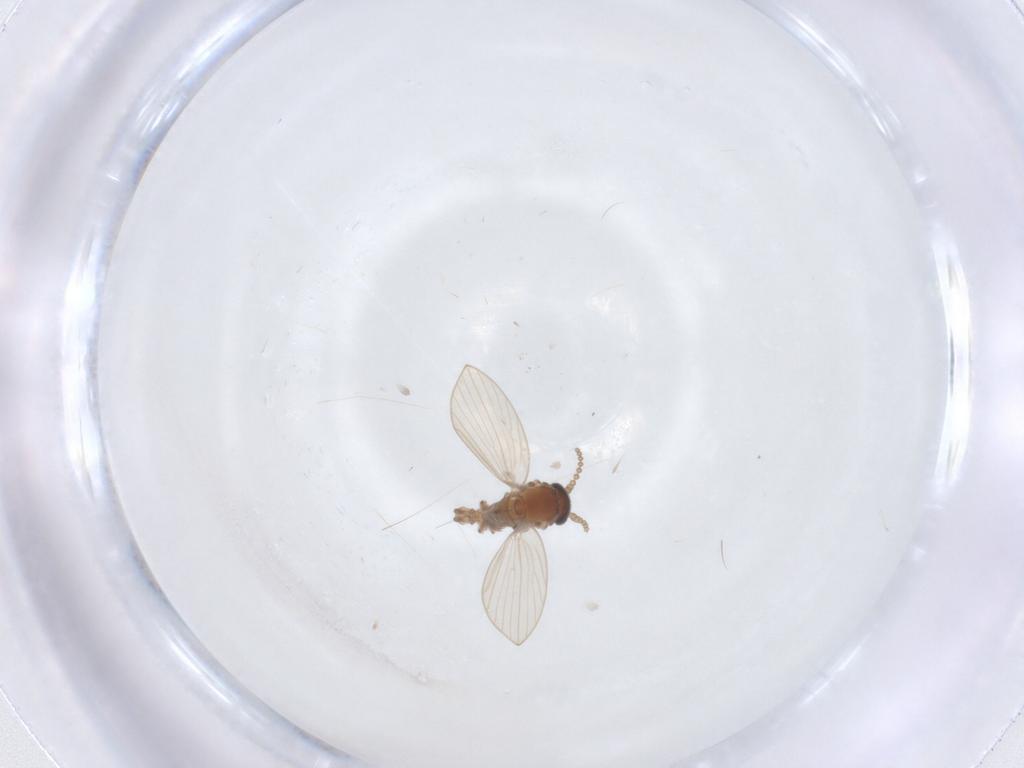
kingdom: Animalia
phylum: Arthropoda
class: Insecta
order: Diptera
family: Psychodidae
